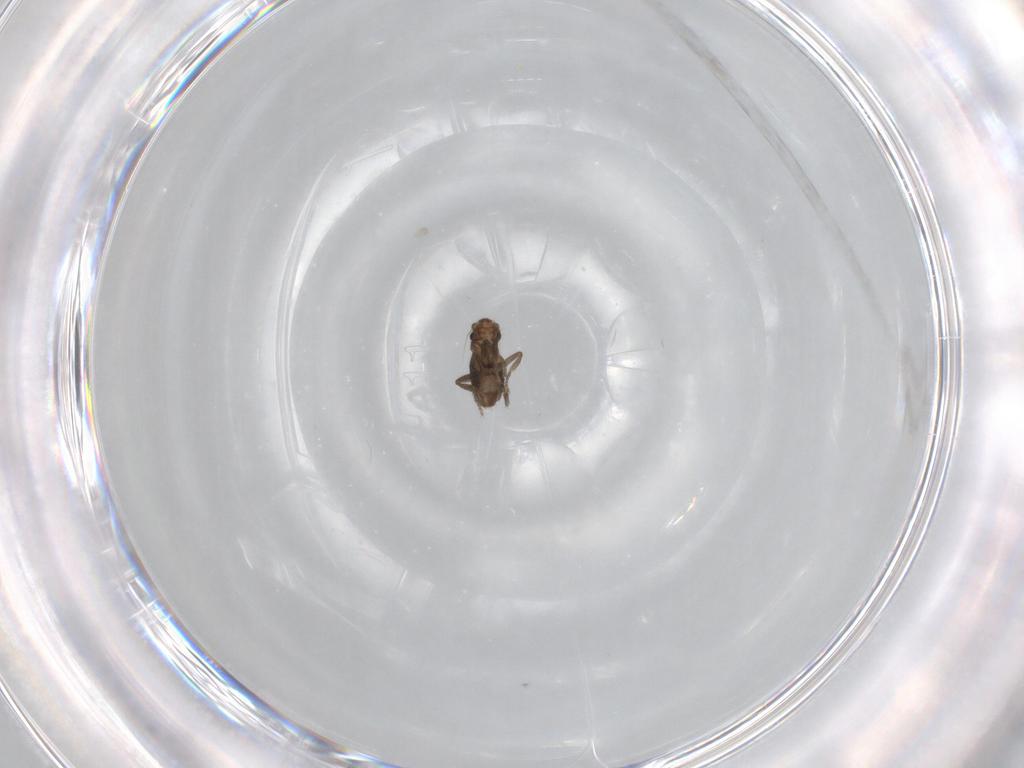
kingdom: Animalia
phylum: Arthropoda
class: Insecta
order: Diptera
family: Phoridae
